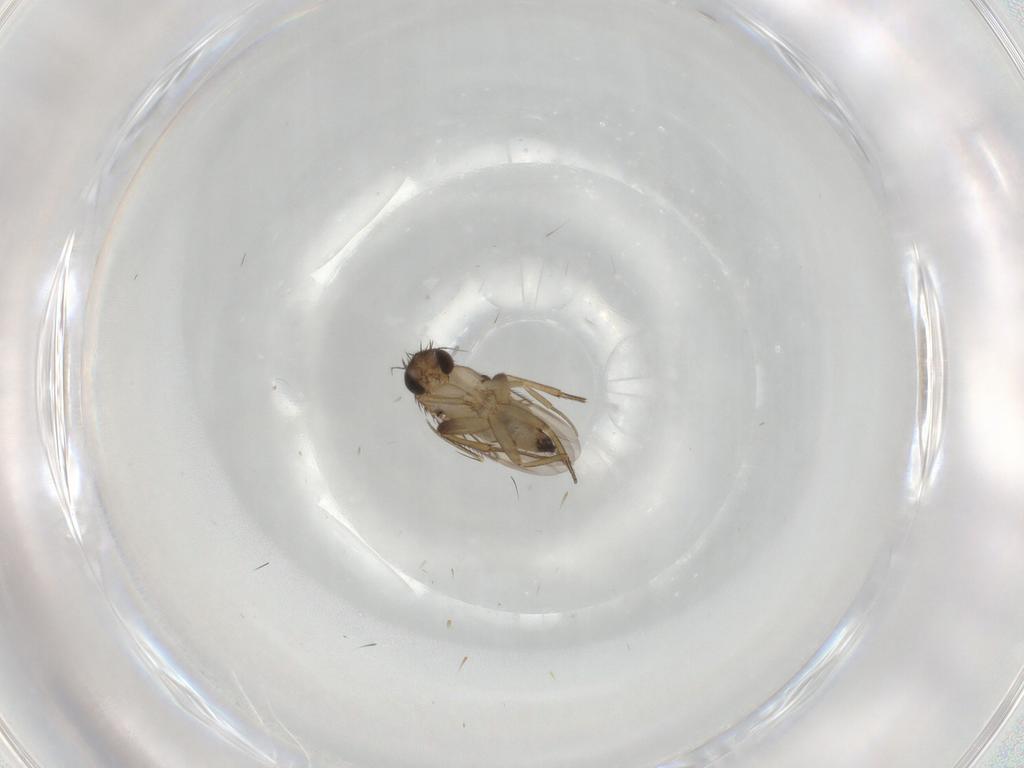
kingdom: Animalia
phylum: Arthropoda
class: Insecta
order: Diptera
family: Phoridae
